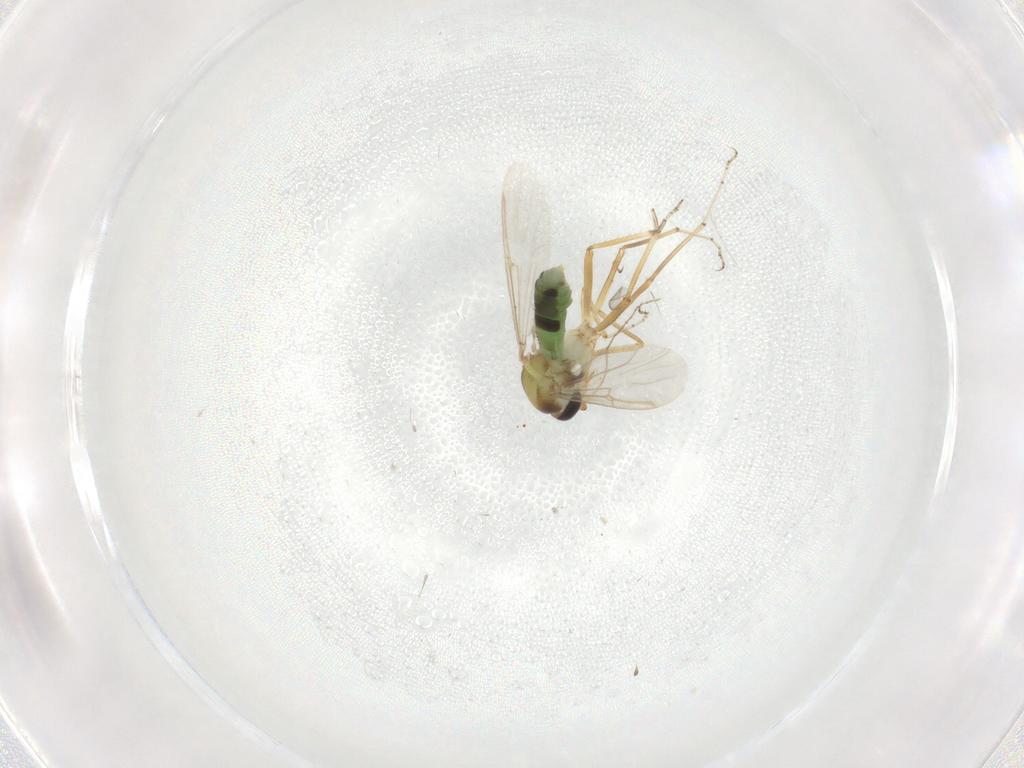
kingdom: Animalia
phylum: Arthropoda
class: Insecta
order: Diptera
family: Ceratopogonidae
